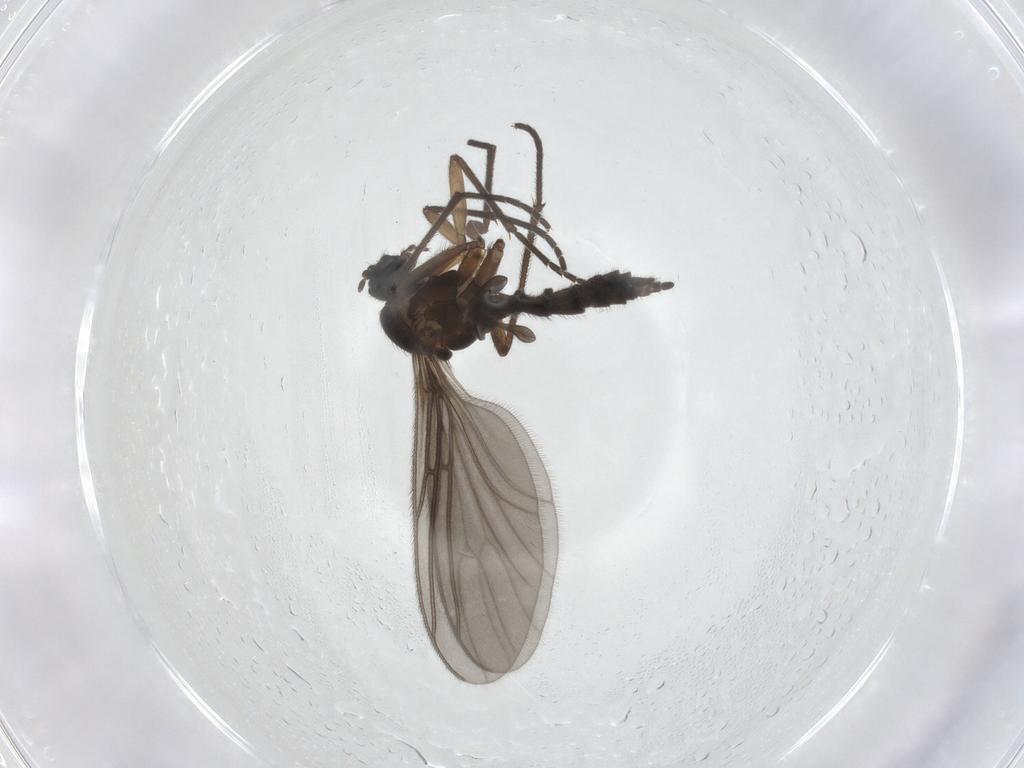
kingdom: Animalia
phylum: Arthropoda
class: Insecta
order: Diptera
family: Sciaridae
